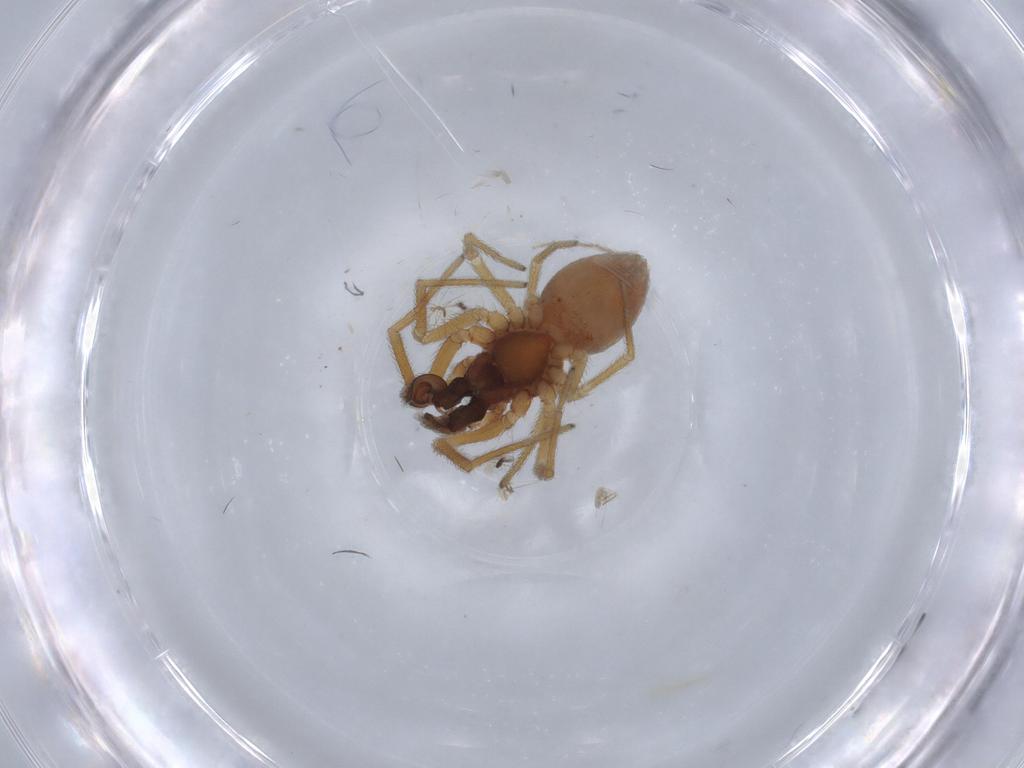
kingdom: Animalia
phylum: Arthropoda
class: Arachnida
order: Araneae
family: Dictynidae
